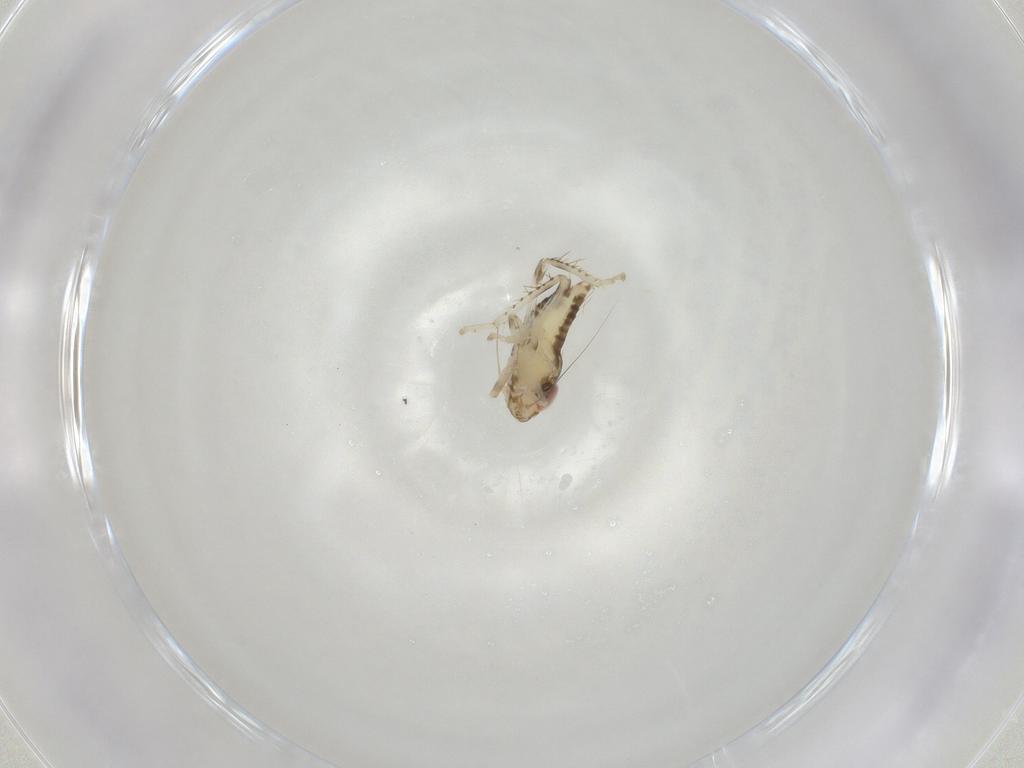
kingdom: Animalia
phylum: Arthropoda
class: Insecta
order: Hemiptera
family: Cicadellidae
